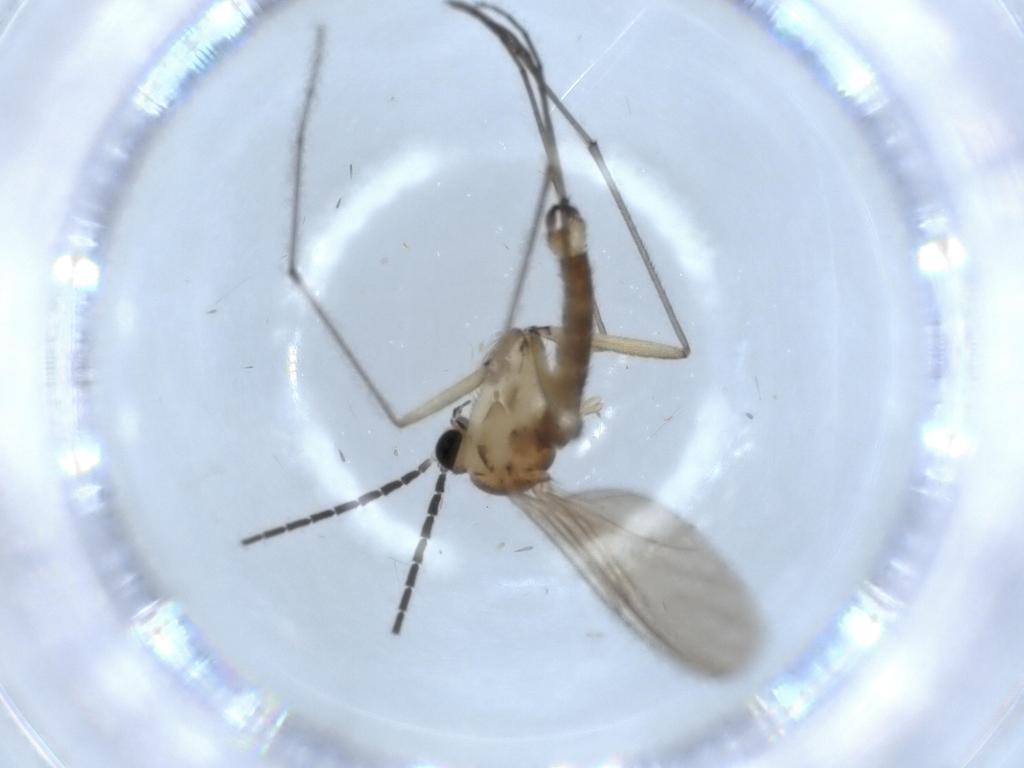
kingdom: Animalia
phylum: Arthropoda
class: Insecta
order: Diptera
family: Sciaridae
